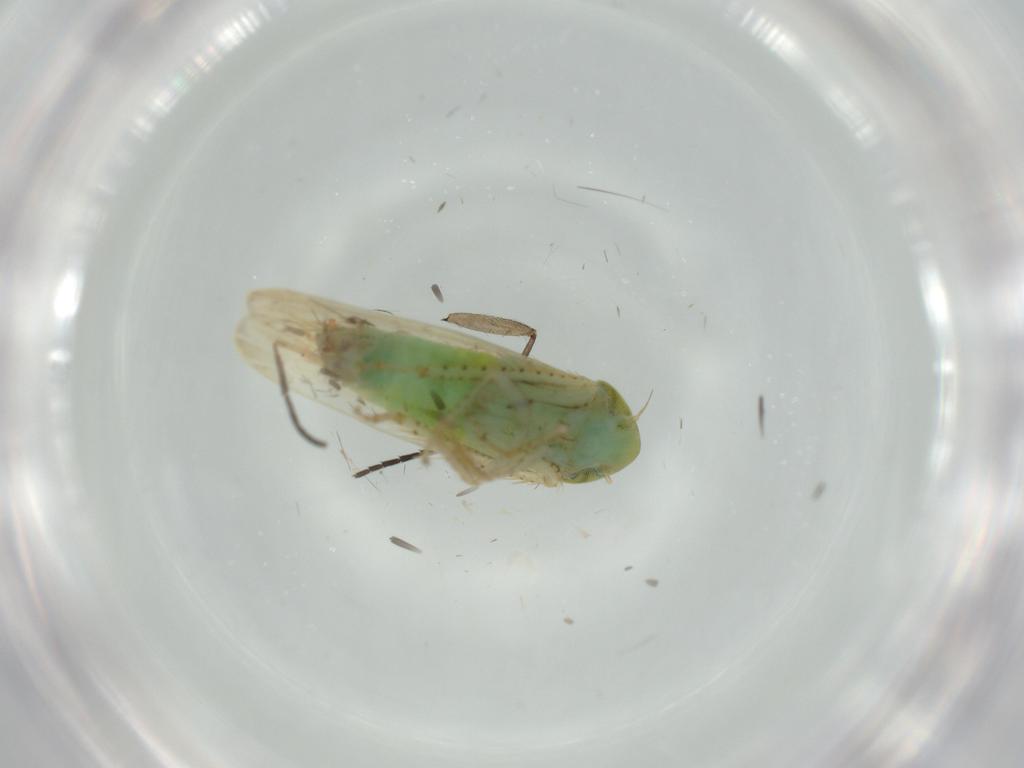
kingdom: Animalia
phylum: Arthropoda
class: Insecta
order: Hemiptera
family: Cicadellidae
